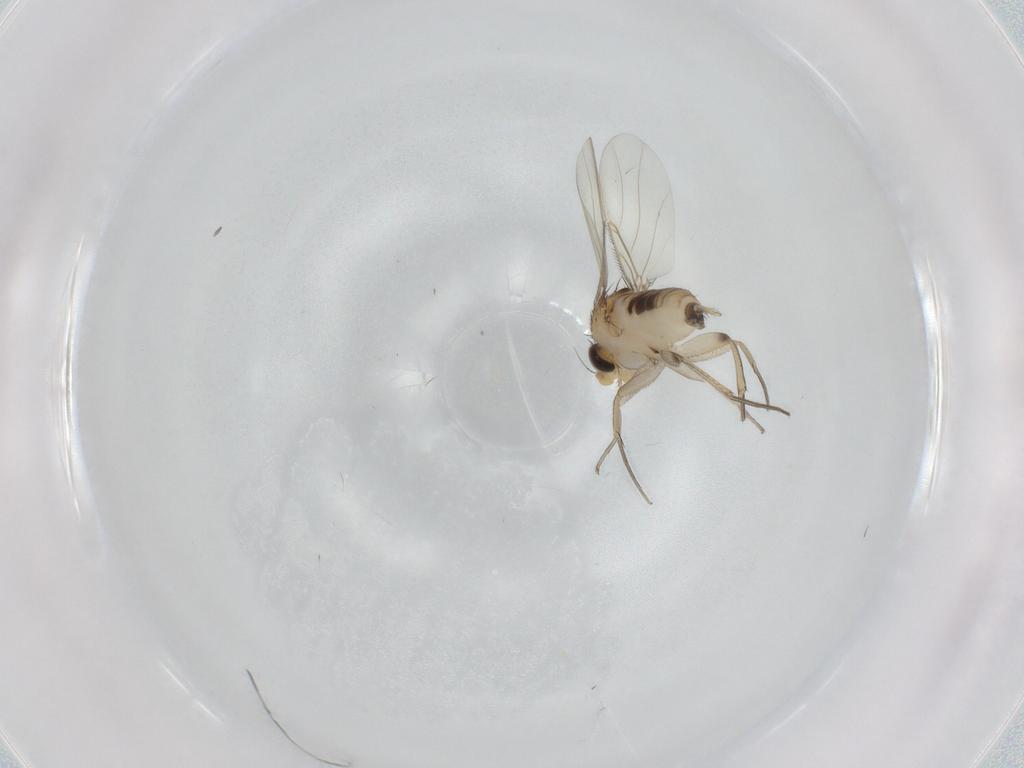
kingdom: Animalia
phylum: Arthropoda
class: Insecta
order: Diptera
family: Phoridae
